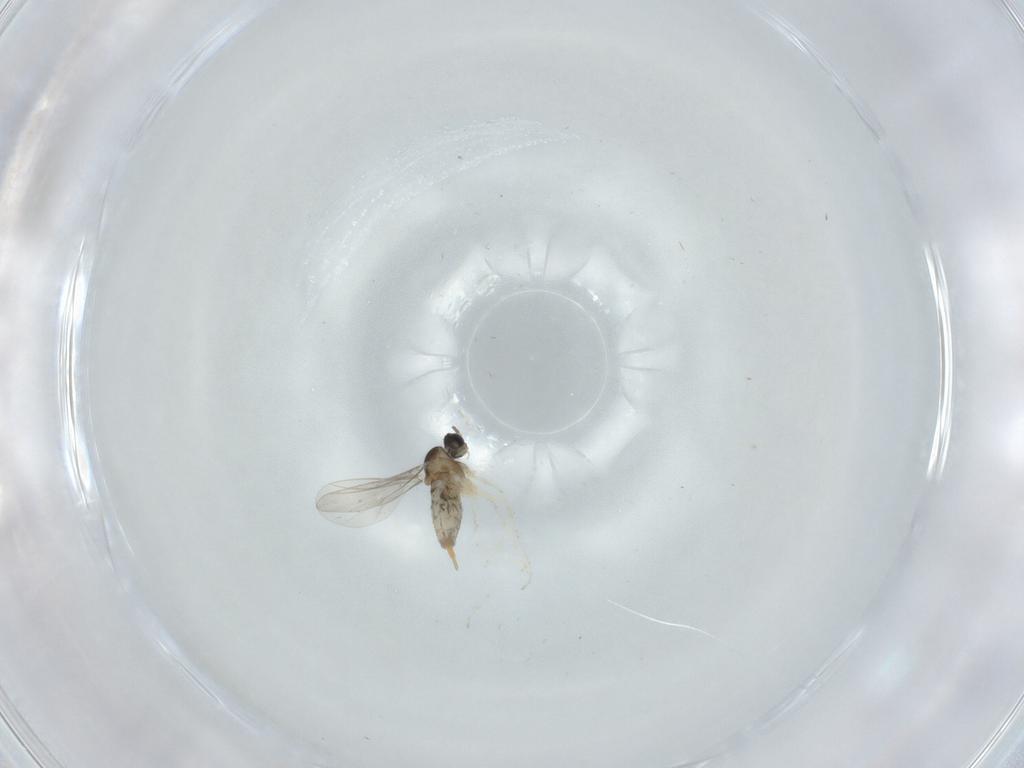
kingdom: Animalia
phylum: Arthropoda
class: Insecta
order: Diptera
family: Cecidomyiidae
